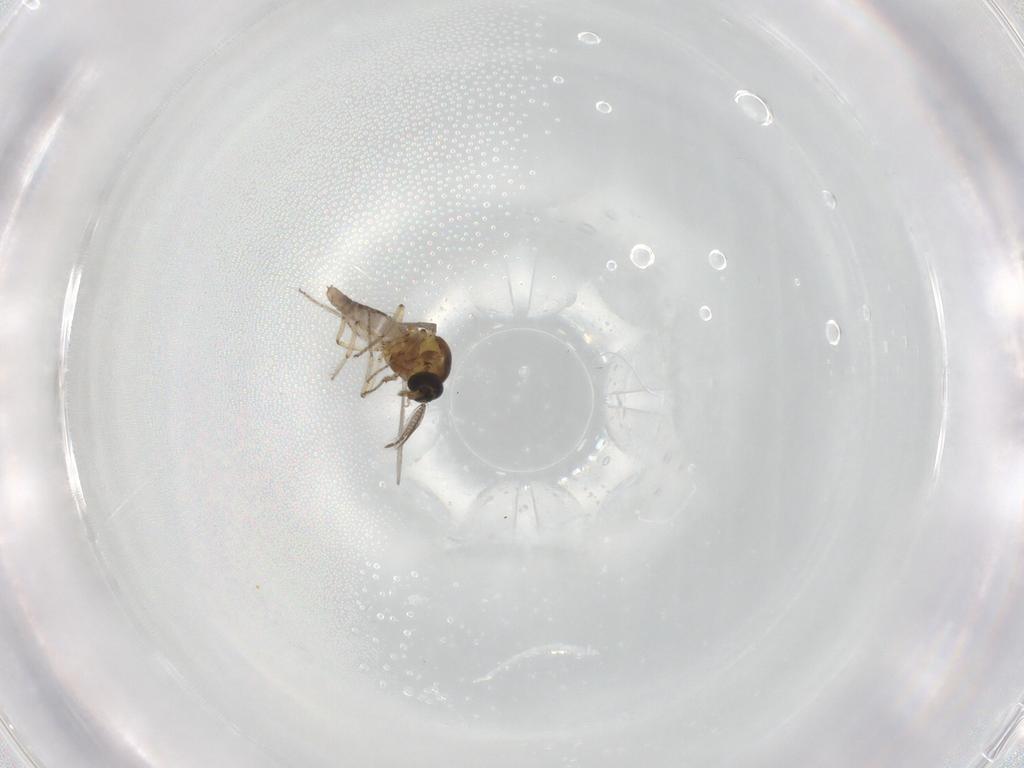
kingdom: Animalia
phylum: Arthropoda
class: Insecta
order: Diptera
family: Ceratopogonidae
